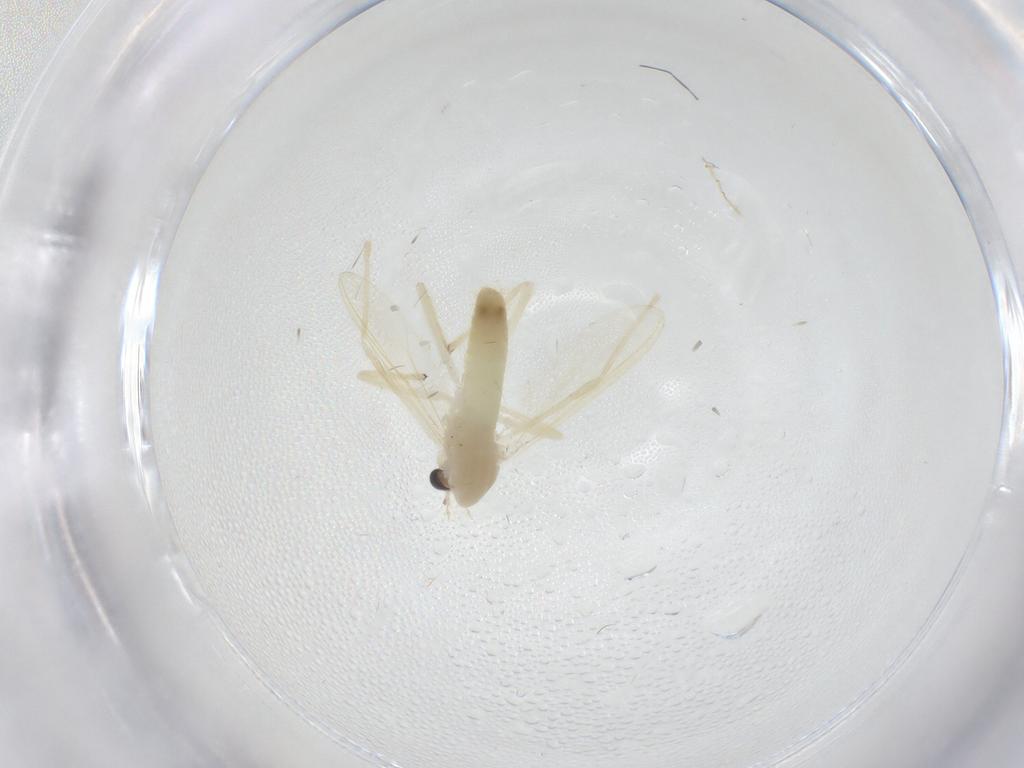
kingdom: Animalia
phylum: Arthropoda
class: Insecta
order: Diptera
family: Chironomidae
